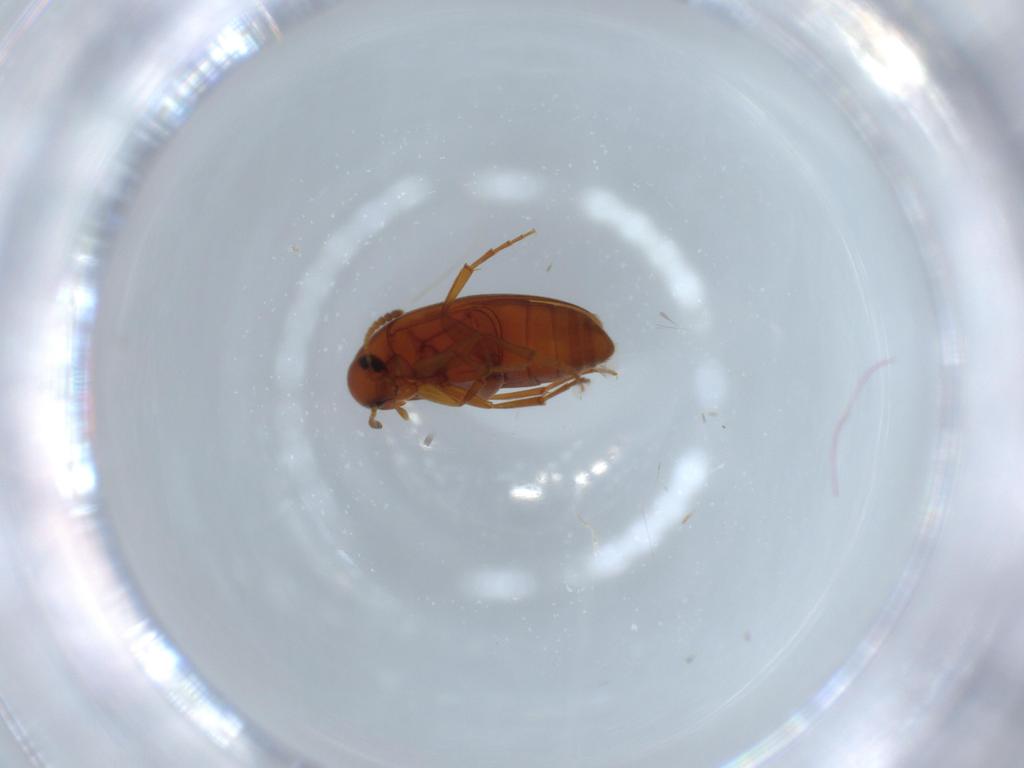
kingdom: Animalia
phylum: Arthropoda
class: Insecta
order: Coleoptera
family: Scraptiidae
